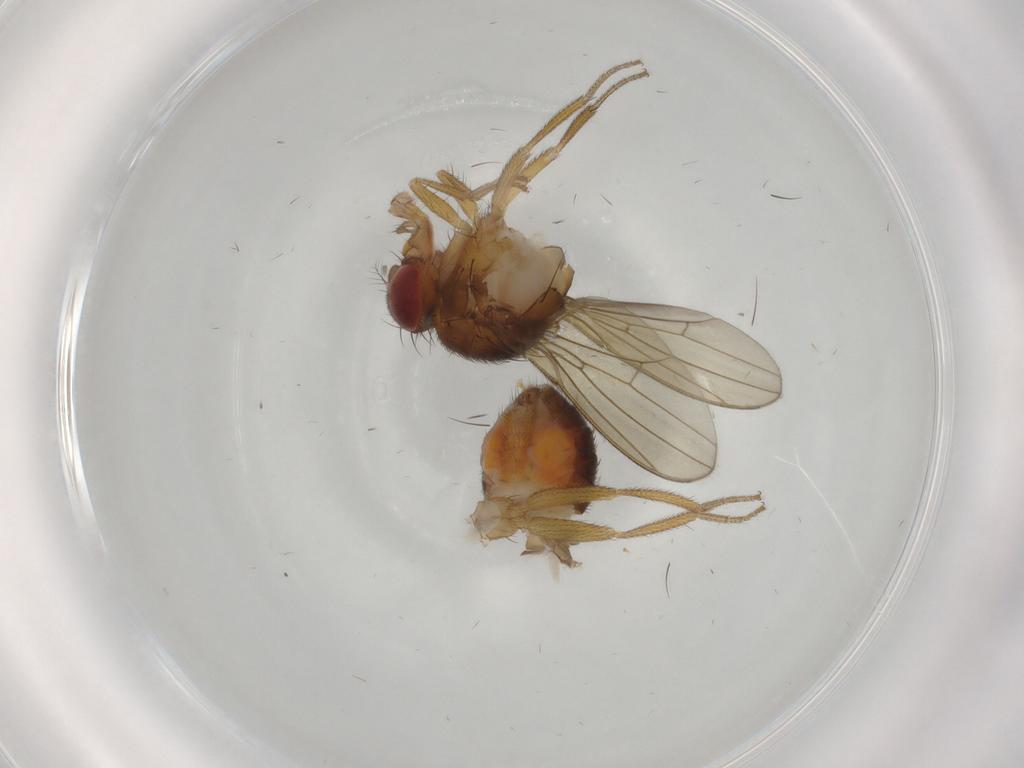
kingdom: Animalia
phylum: Arthropoda
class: Insecta
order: Diptera
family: Drosophilidae
